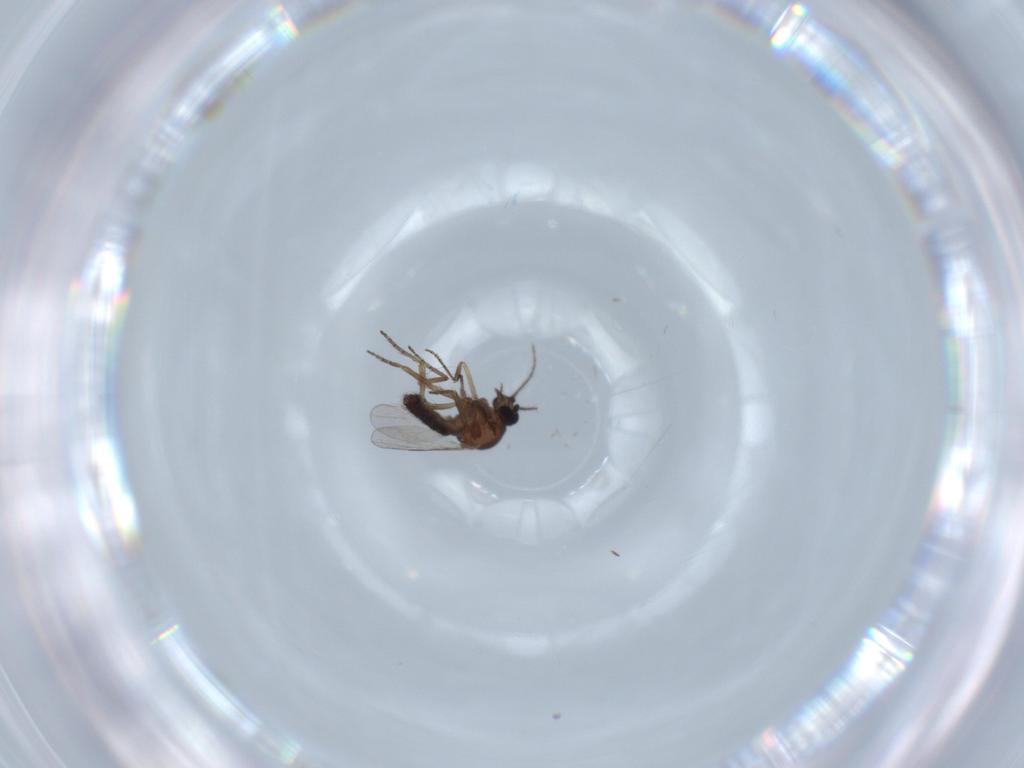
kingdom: Animalia
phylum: Arthropoda
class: Insecta
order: Diptera
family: Sciaridae
